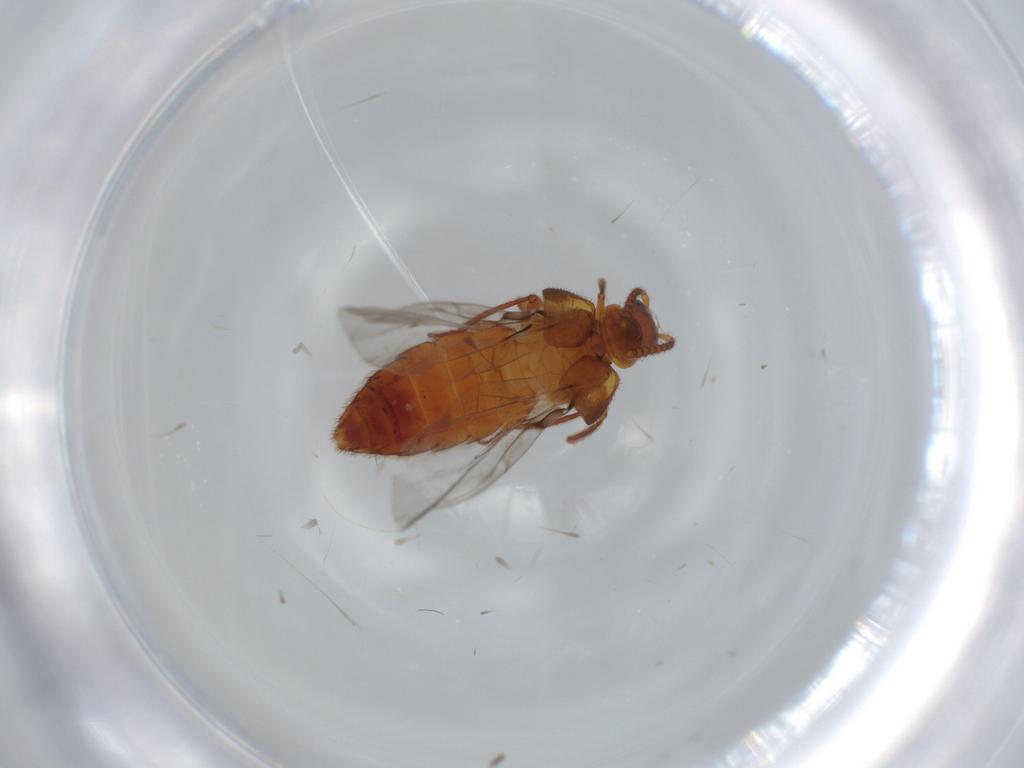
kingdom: Animalia
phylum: Arthropoda
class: Insecta
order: Coleoptera
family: Staphylinidae
